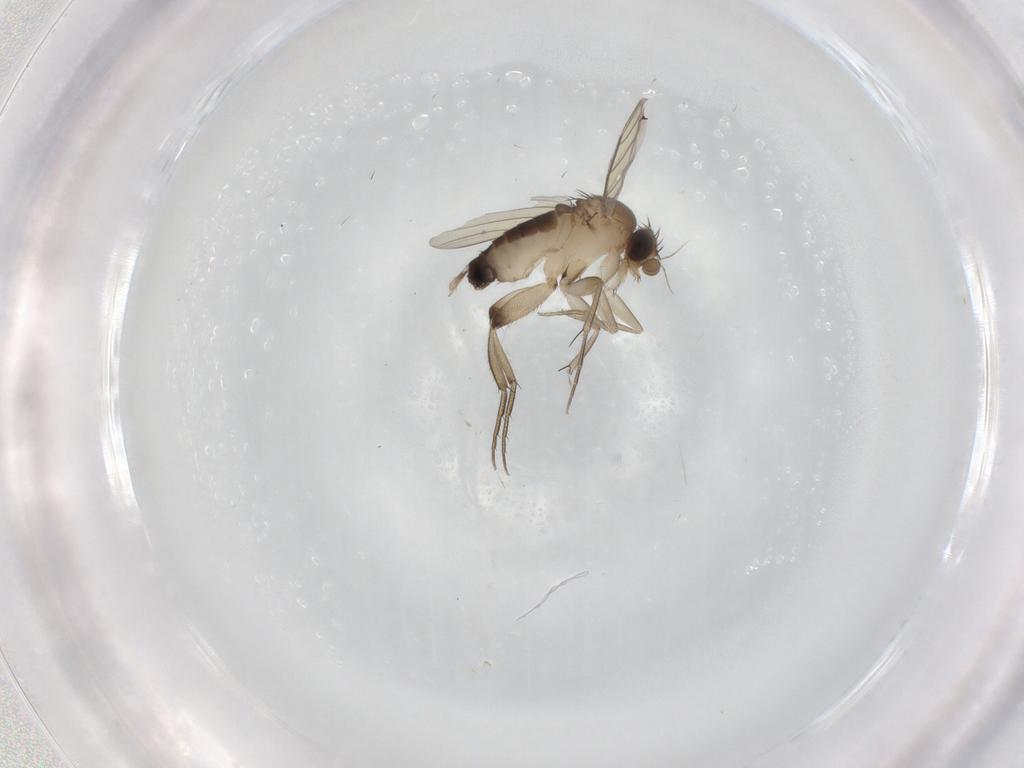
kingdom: Animalia
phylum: Arthropoda
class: Insecta
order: Diptera
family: Phoridae
